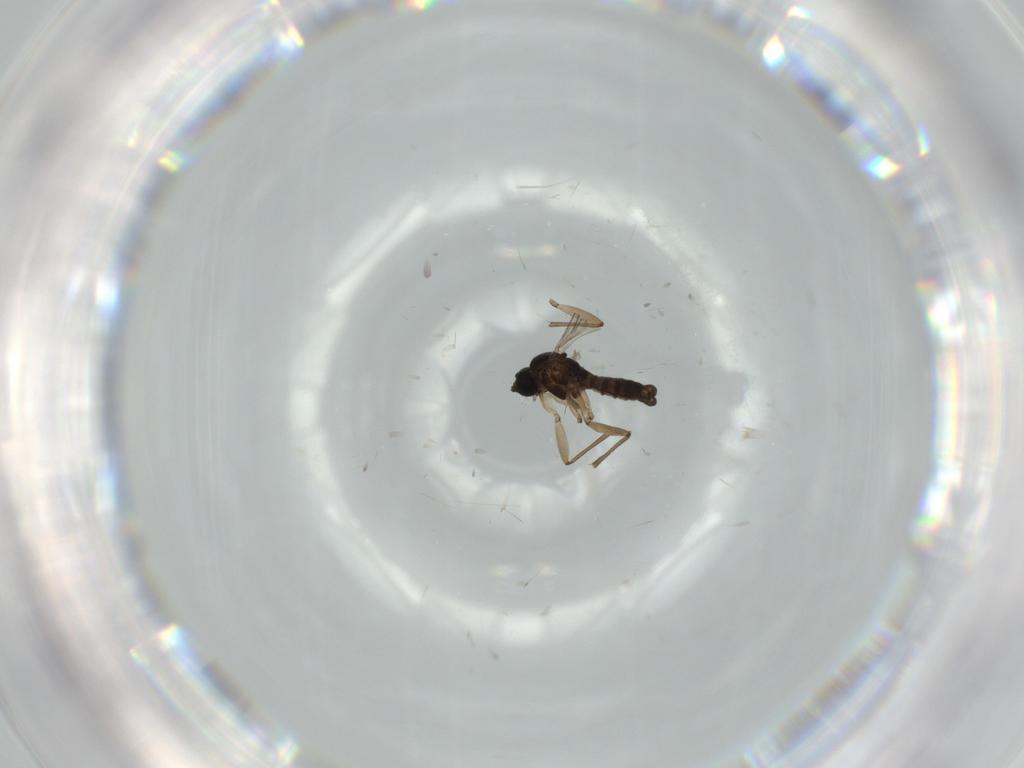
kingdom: Animalia
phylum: Arthropoda
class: Insecta
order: Diptera
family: Sciaridae
